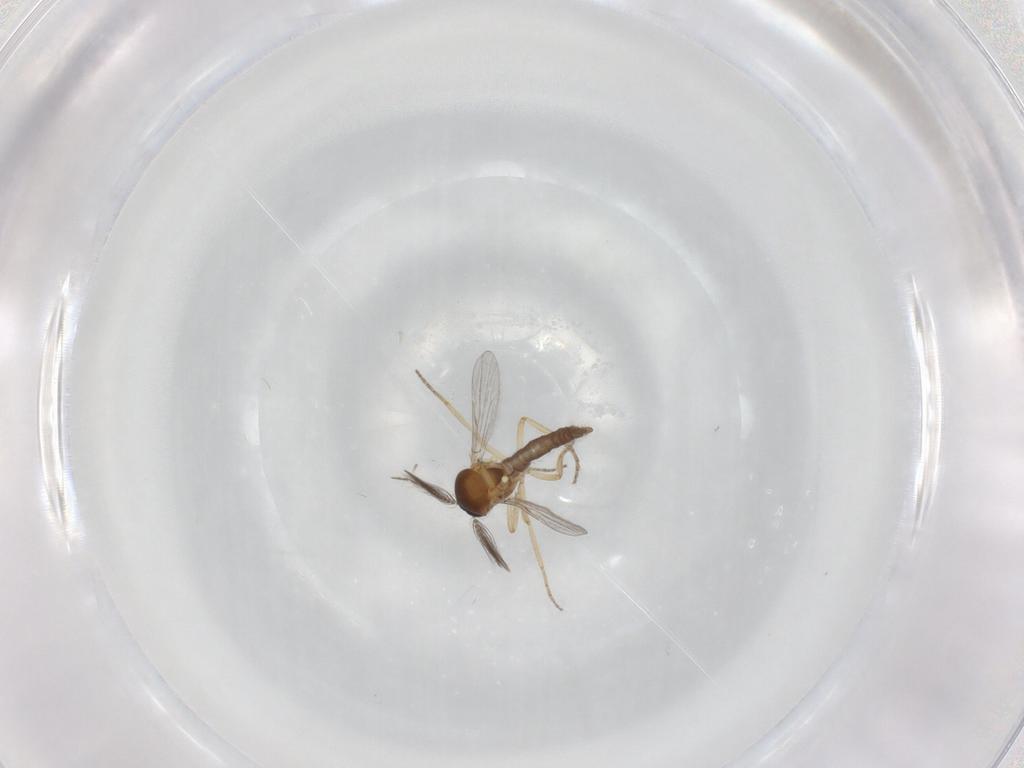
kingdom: Animalia
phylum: Arthropoda
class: Insecta
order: Diptera
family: Ceratopogonidae
